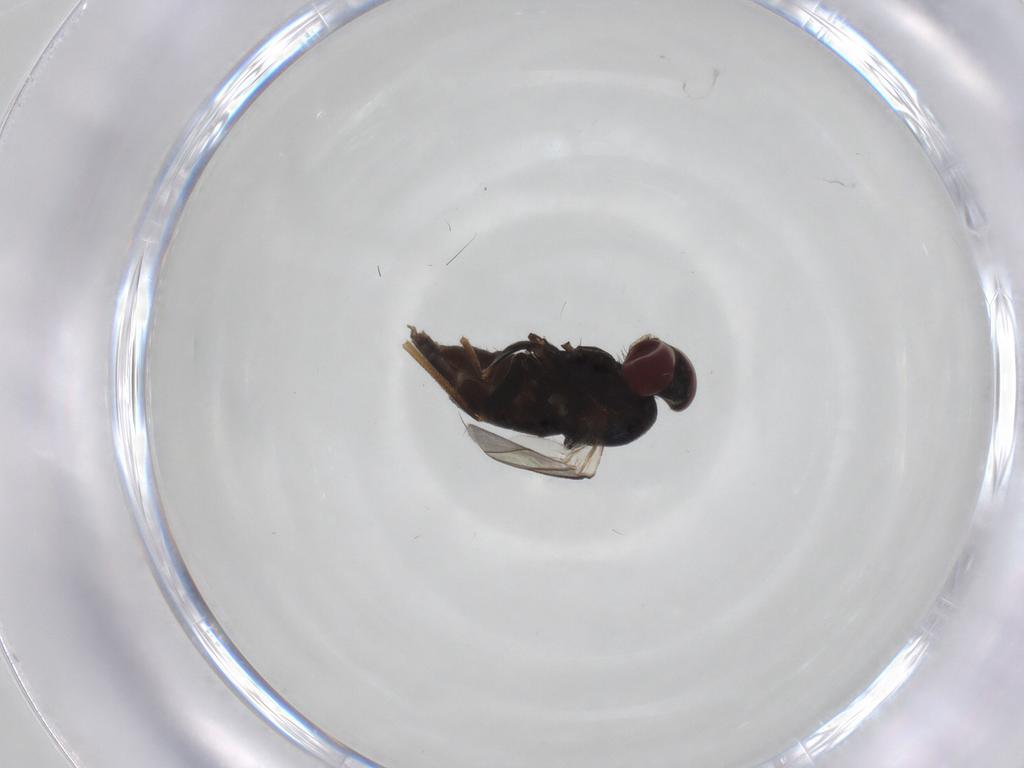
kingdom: Animalia
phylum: Arthropoda
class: Insecta
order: Diptera
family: Dolichopodidae
